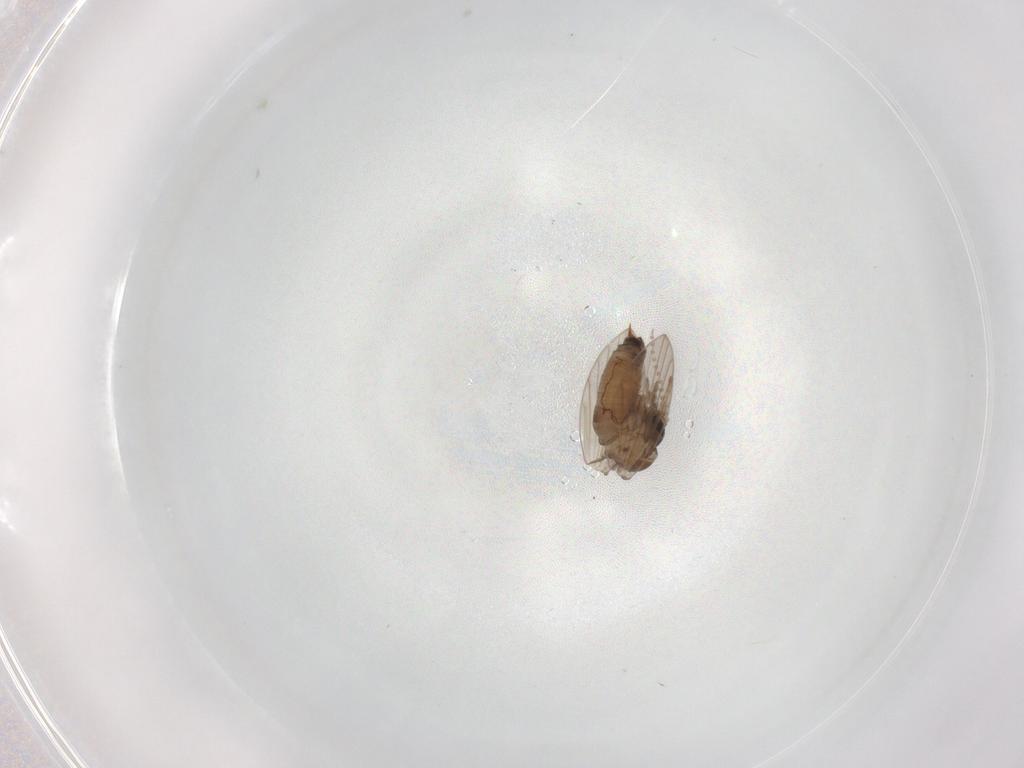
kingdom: Animalia
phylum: Arthropoda
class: Insecta
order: Diptera
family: Psychodidae
